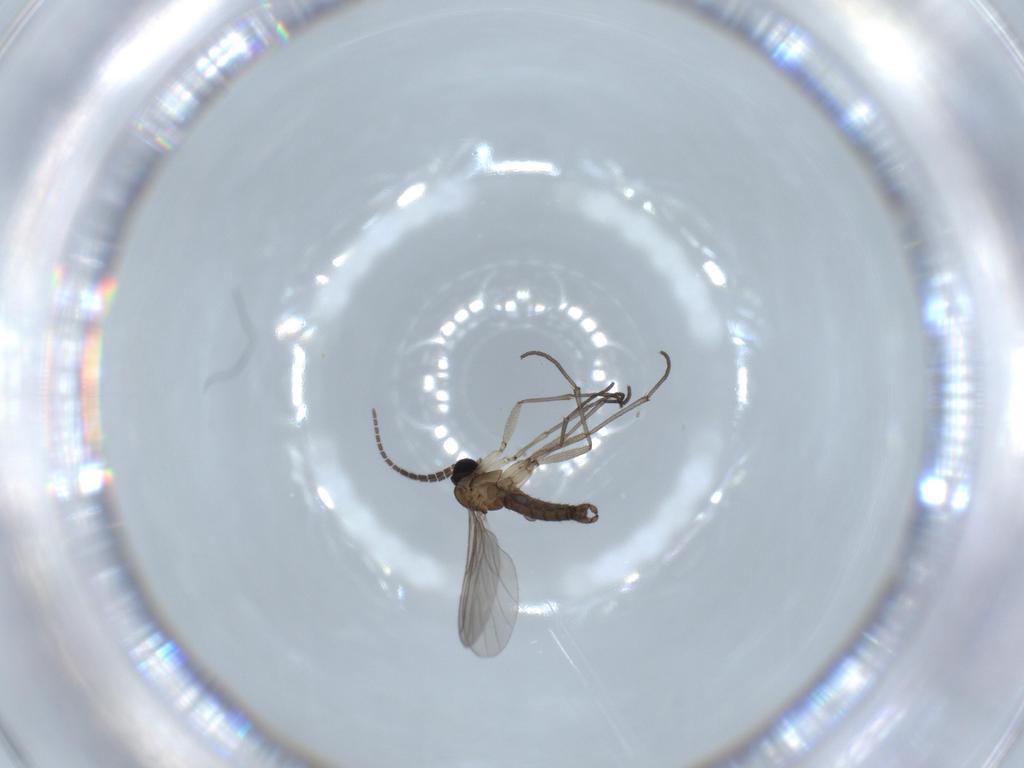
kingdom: Animalia
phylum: Arthropoda
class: Insecta
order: Diptera
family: Sciaridae
